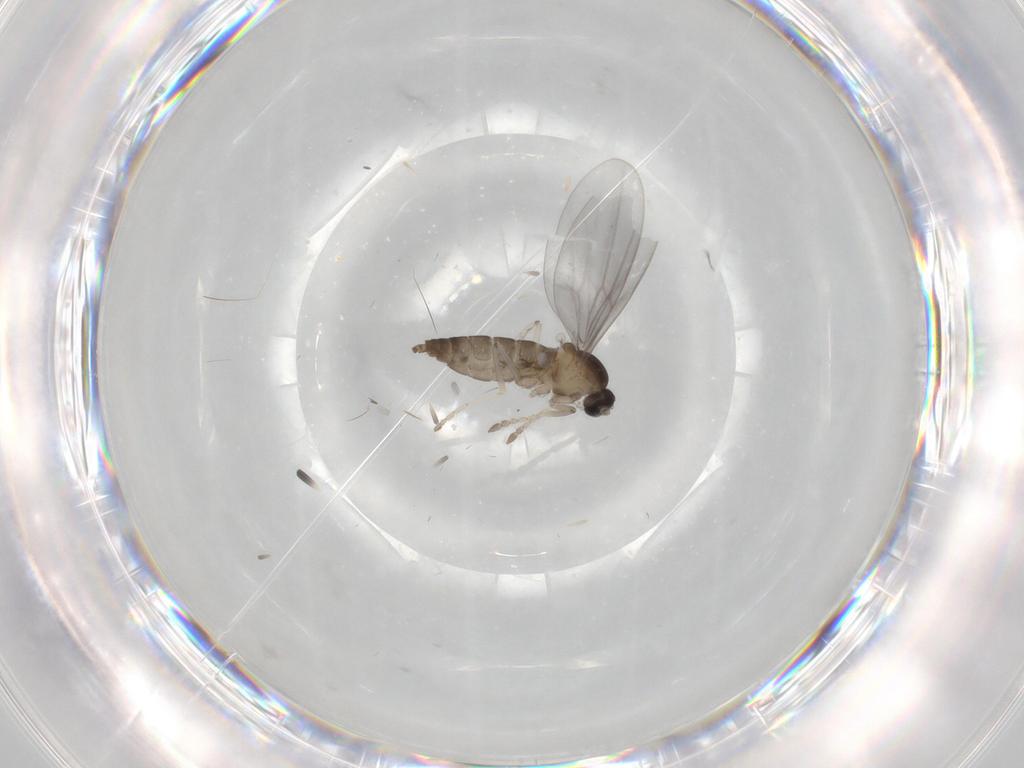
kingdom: Animalia
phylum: Arthropoda
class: Insecta
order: Diptera
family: Cecidomyiidae
